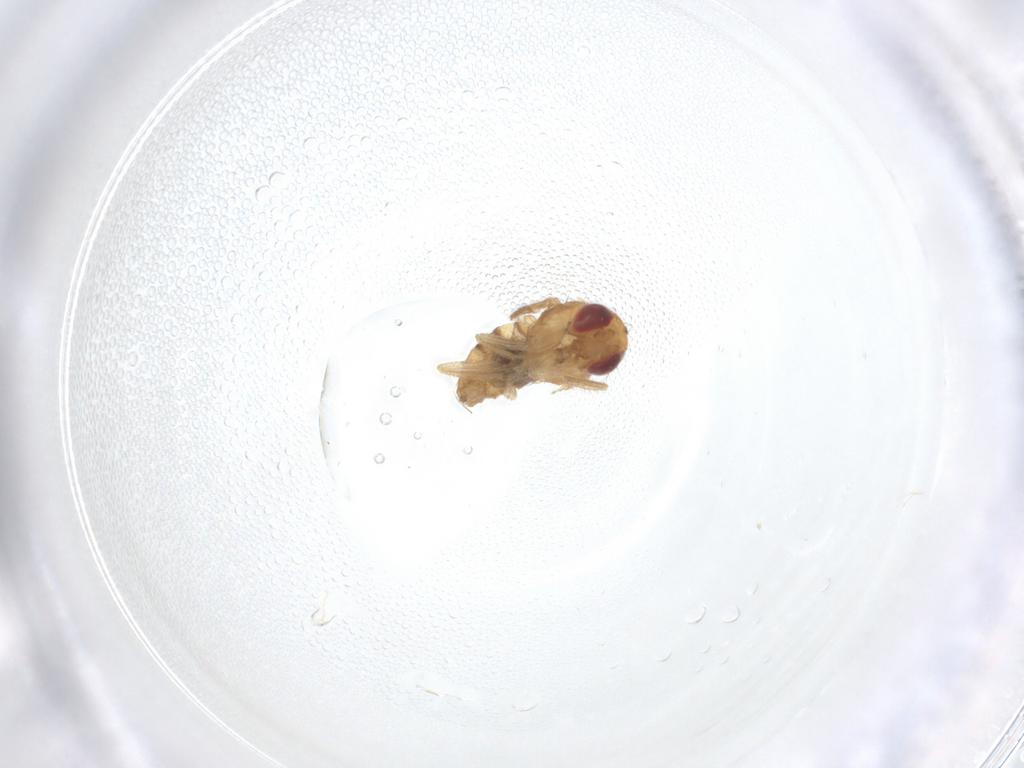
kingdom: Animalia
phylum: Arthropoda
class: Insecta
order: Diptera
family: Drosophilidae
